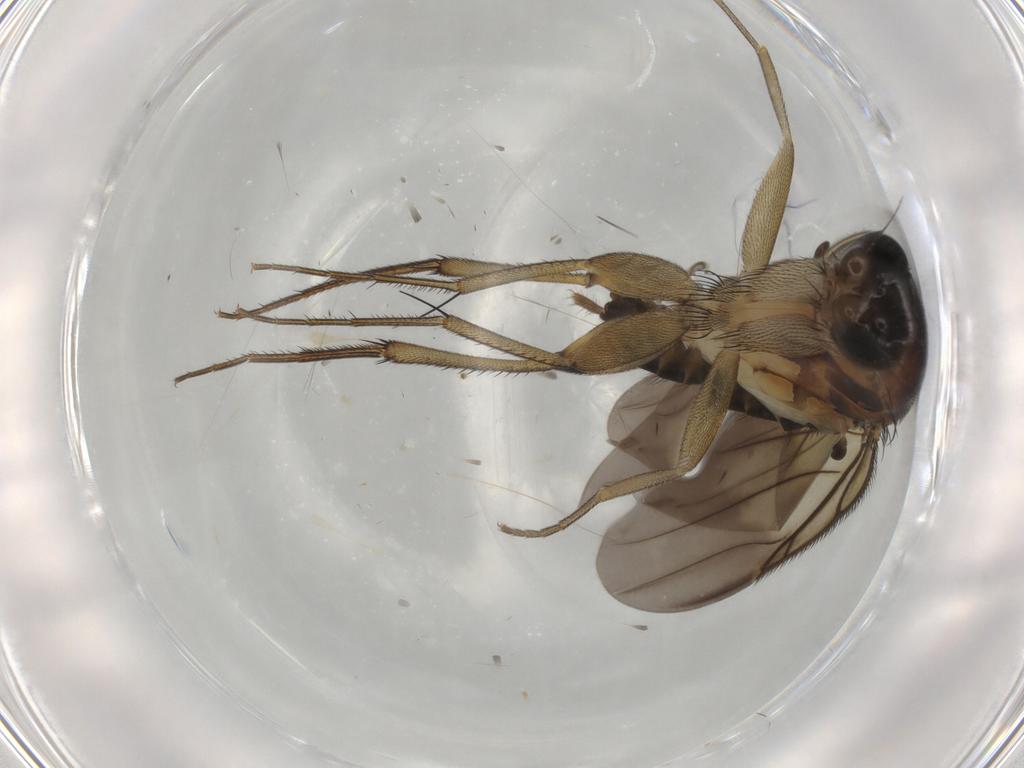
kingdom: Animalia
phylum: Arthropoda
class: Insecta
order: Diptera
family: Phoridae
